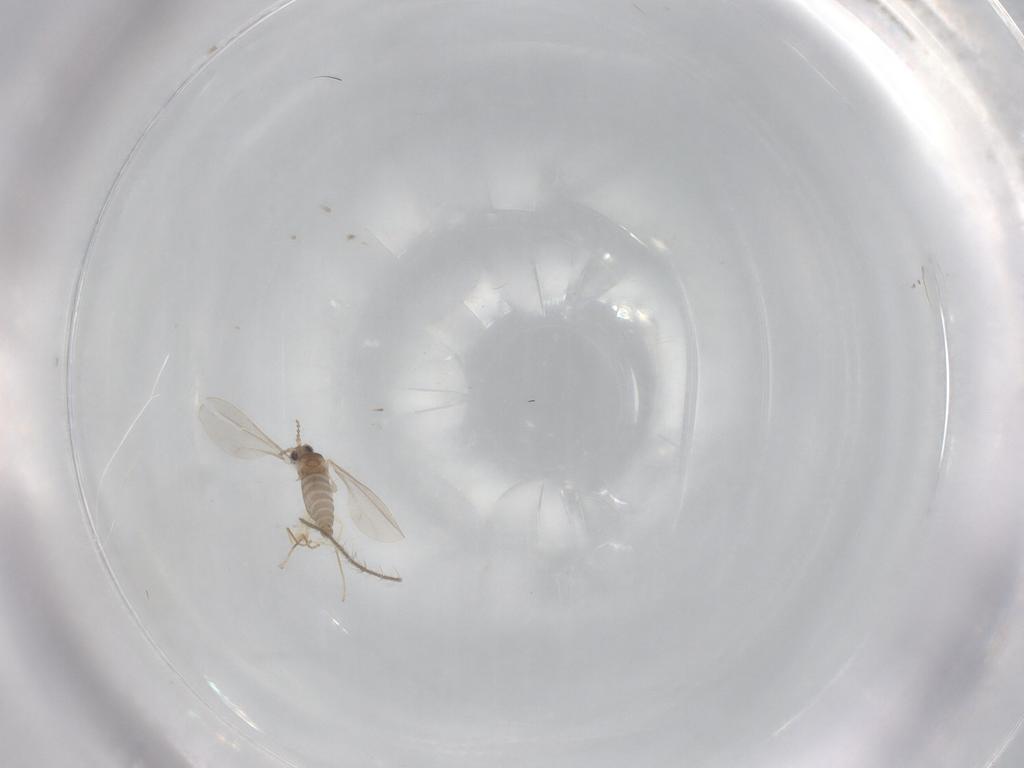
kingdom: Animalia
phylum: Arthropoda
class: Insecta
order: Diptera
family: Cecidomyiidae
